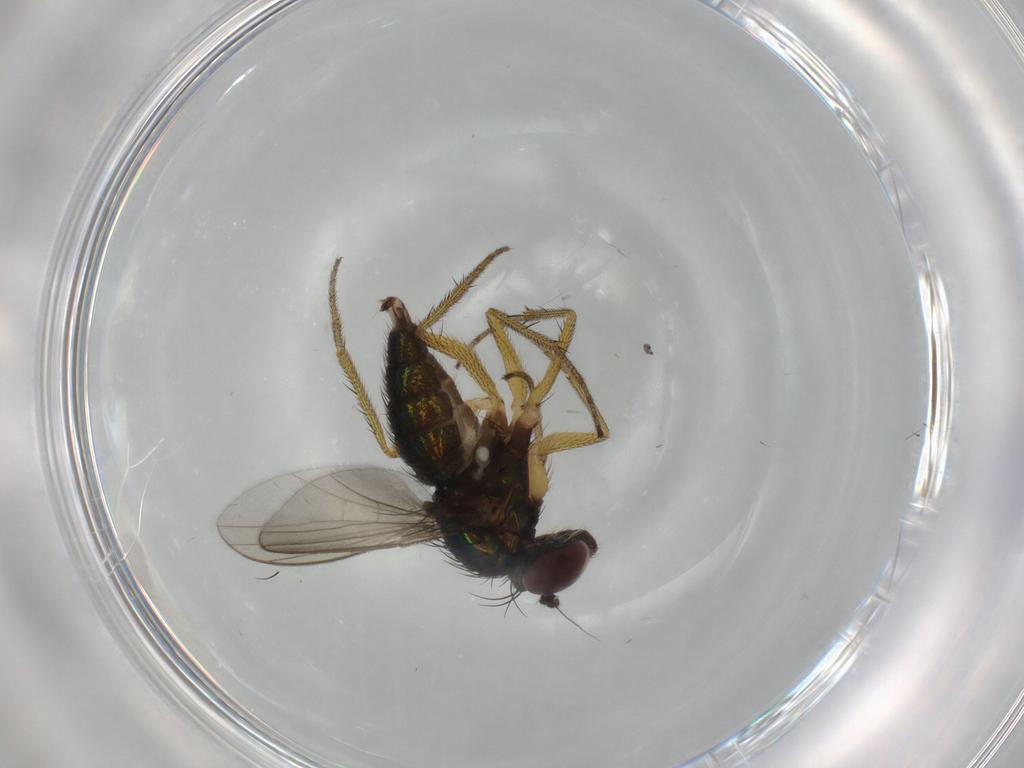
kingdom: Animalia
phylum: Arthropoda
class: Insecta
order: Diptera
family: Dolichopodidae
